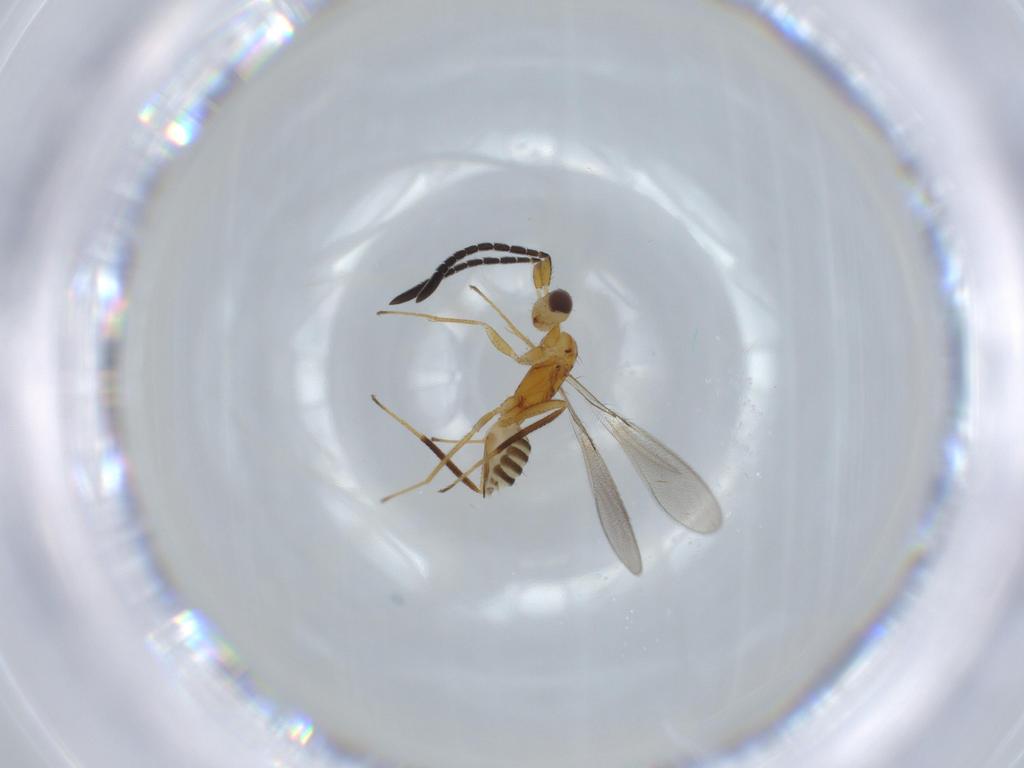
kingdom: Animalia
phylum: Arthropoda
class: Insecta
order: Hymenoptera
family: Mymaridae
